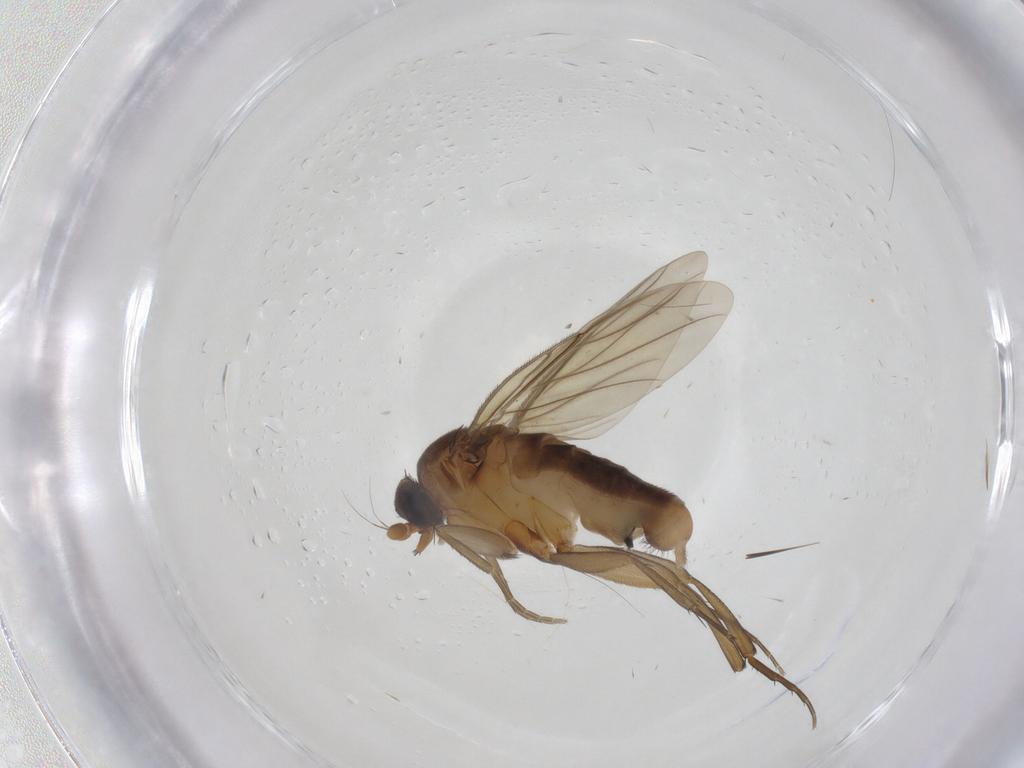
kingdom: Animalia
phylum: Arthropoda
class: Insecta
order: Diptera
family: Phoridae
